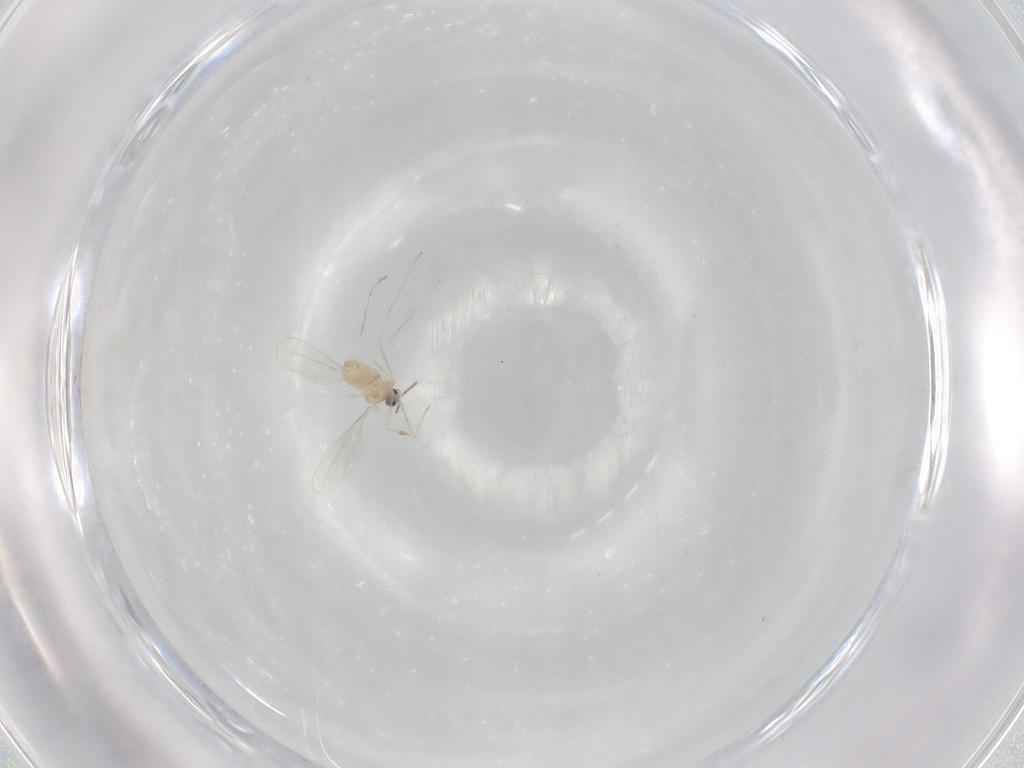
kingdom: Animalia
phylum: Arthropoda
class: Insecta
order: Diptera
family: Cecidomyiidae
